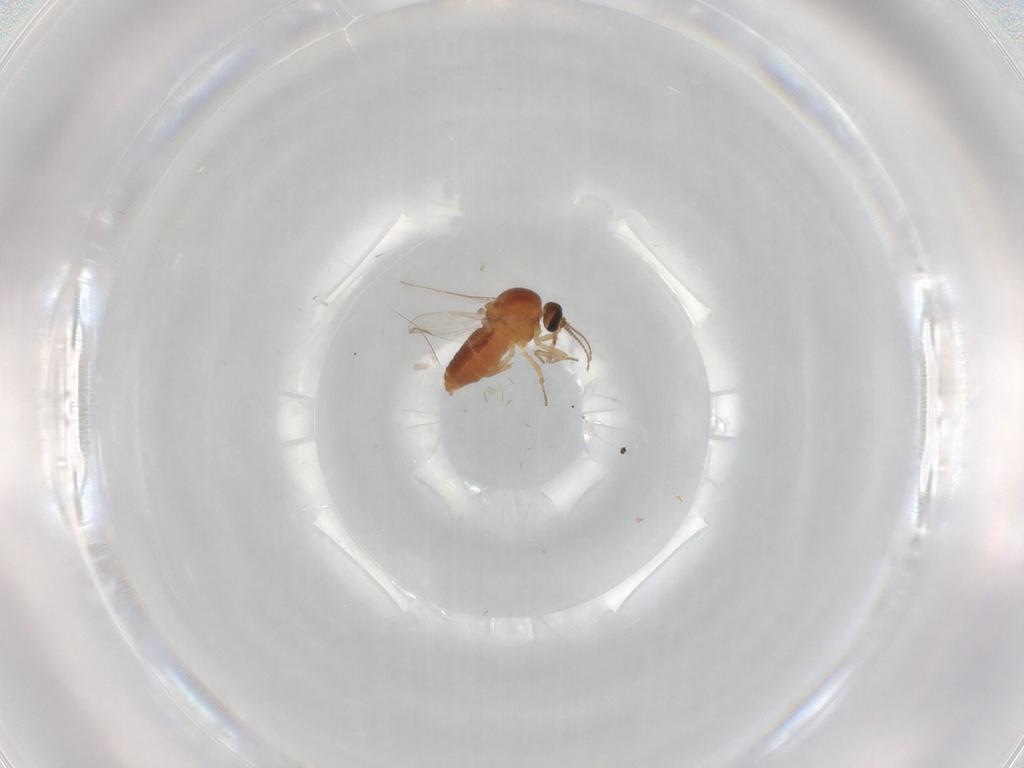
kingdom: Animalia
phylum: Arthropoda
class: Insecta
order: Diptera
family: Ceratopogonidae
